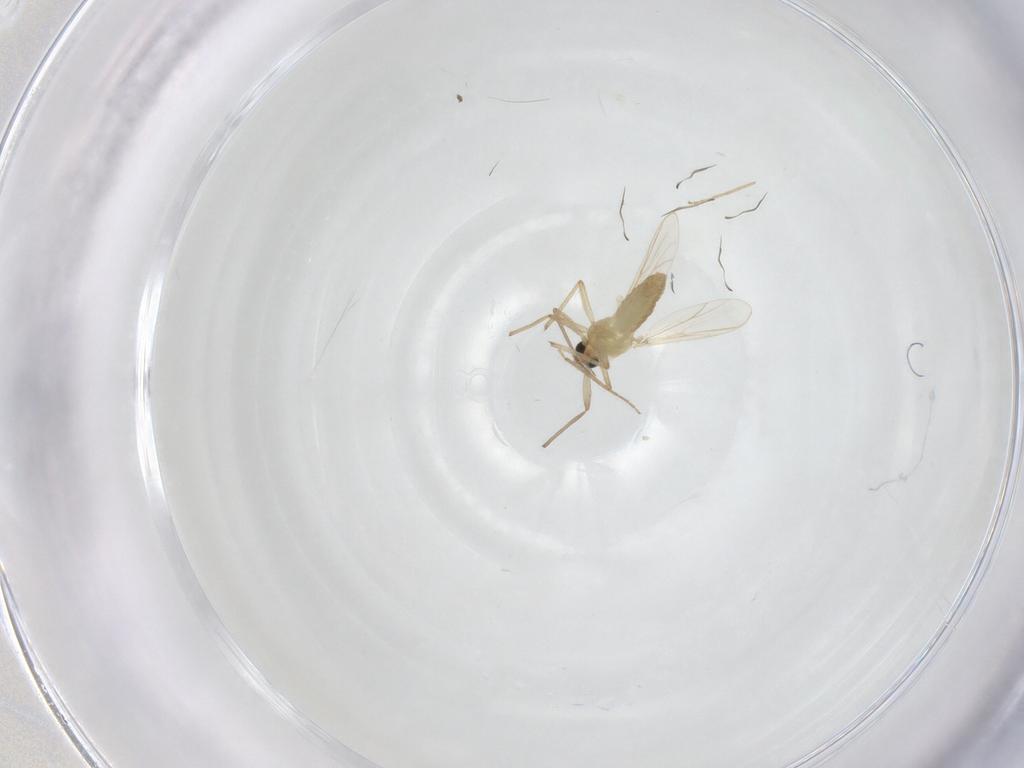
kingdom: Animalia
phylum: Arthropoda
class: Insecta
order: Diptera
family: Chironomidae
